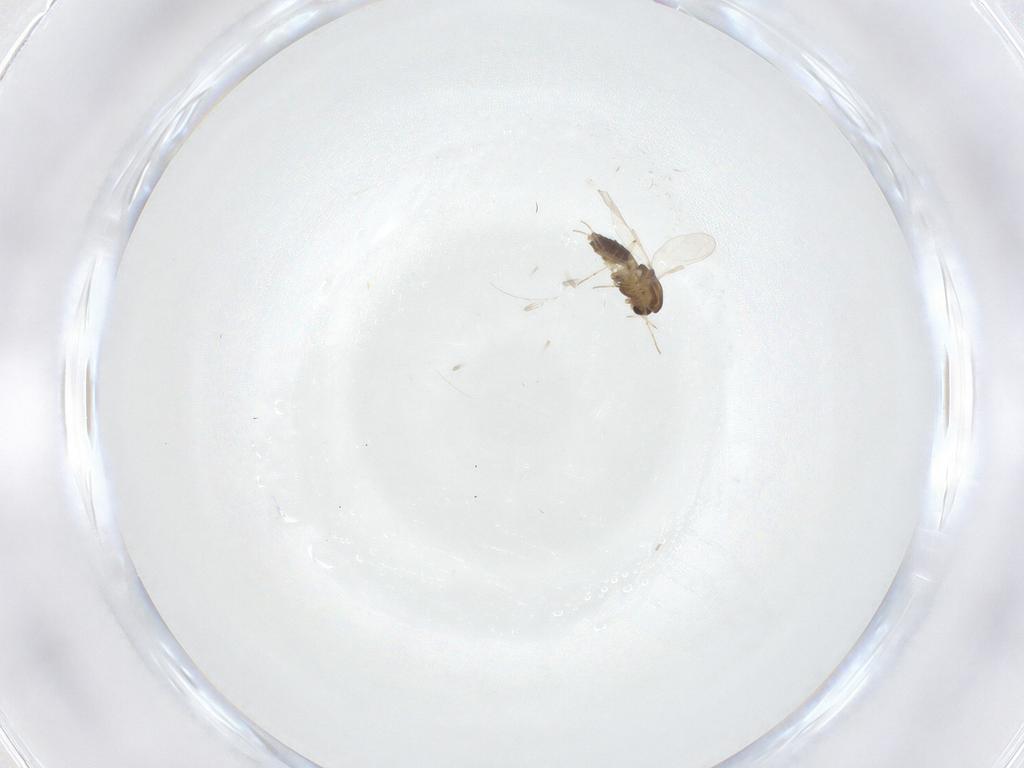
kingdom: Animalia
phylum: Arthropoda
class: Insecta
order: Diptera
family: Chironomidae
